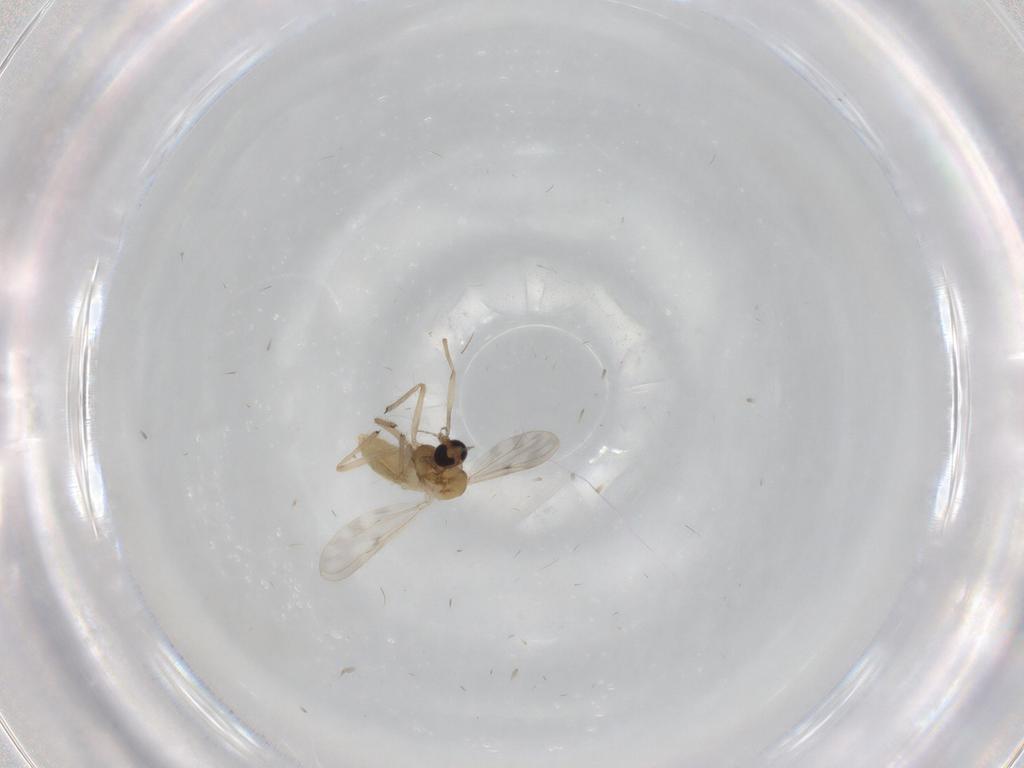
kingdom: Animalia
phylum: Arthropoda
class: Insecta
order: Diptera
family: Chironomidae
